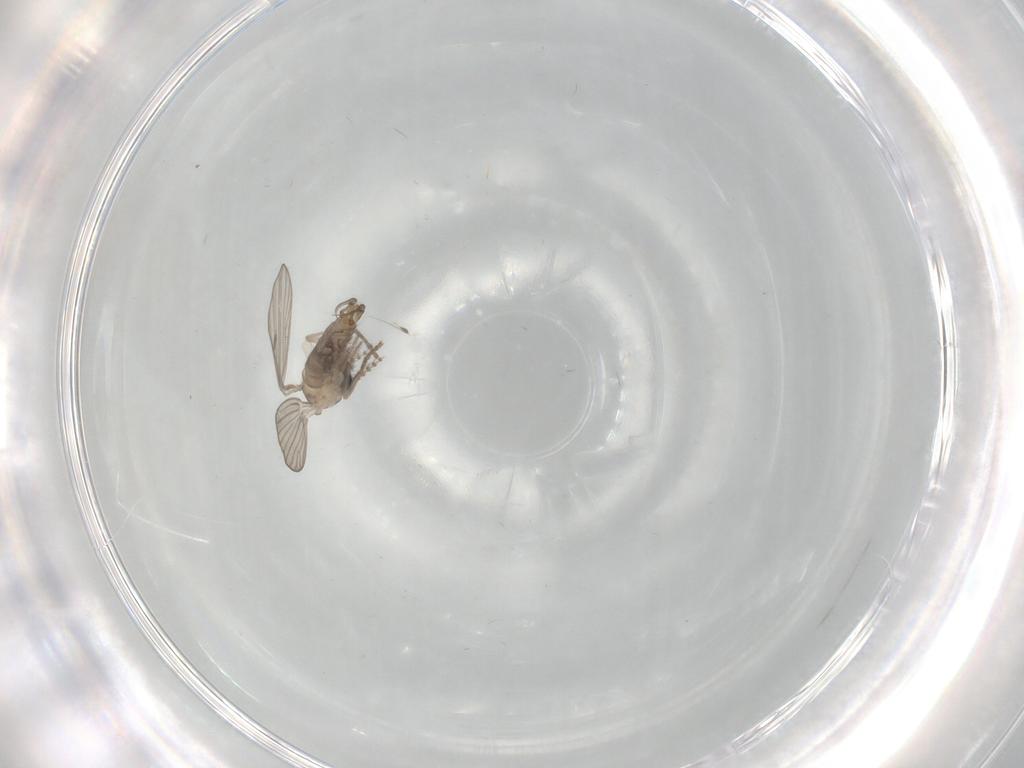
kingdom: Animalia
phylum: Arthropoda
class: Insecta
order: Diptera
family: Psychodidae
